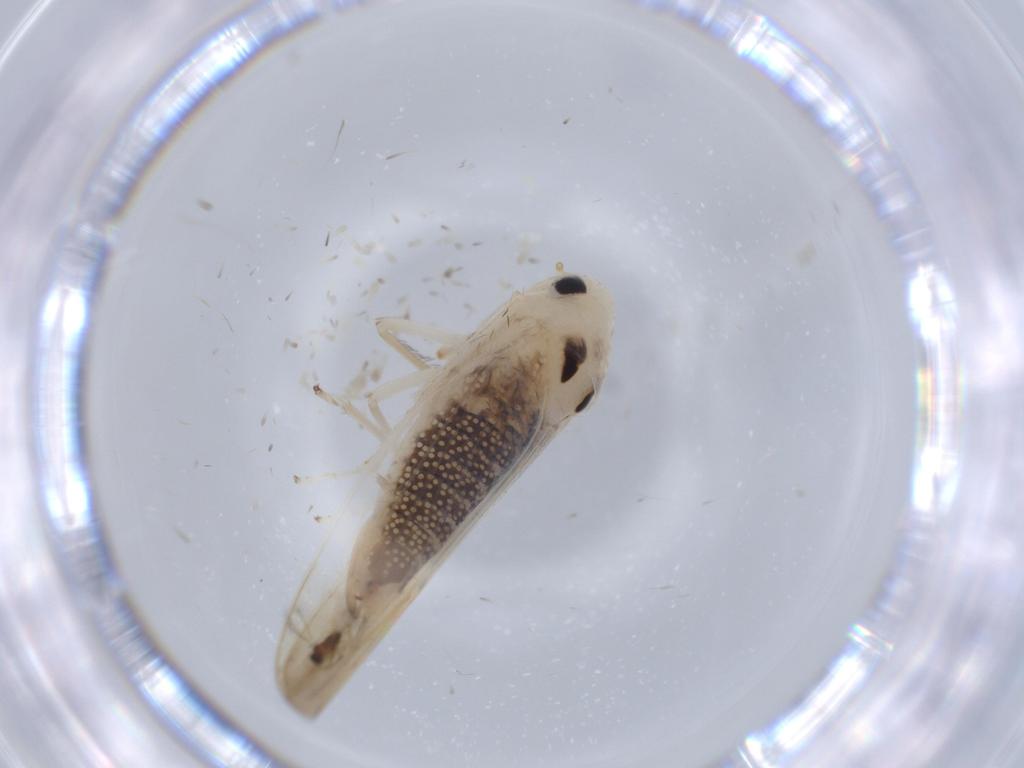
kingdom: Animalia
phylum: Arthropoda
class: Insecta
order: Hemiptera
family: Cicadellidae
